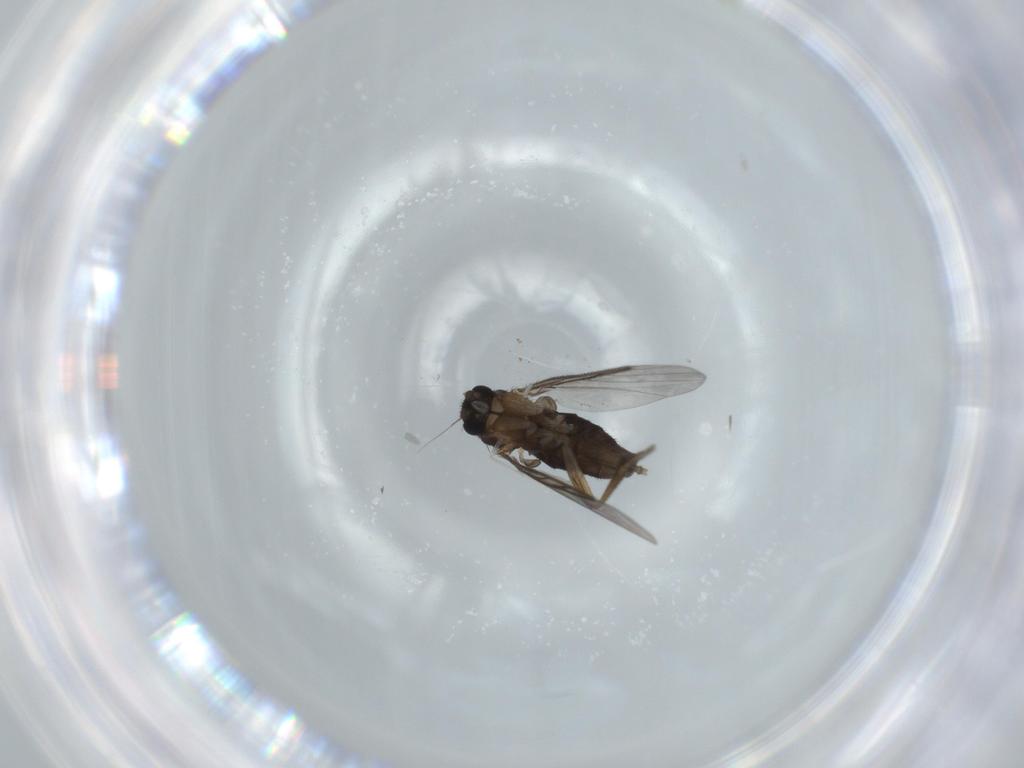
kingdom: Animalia
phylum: Arthropoda
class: Insecta
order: Diptera
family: Phoridae
